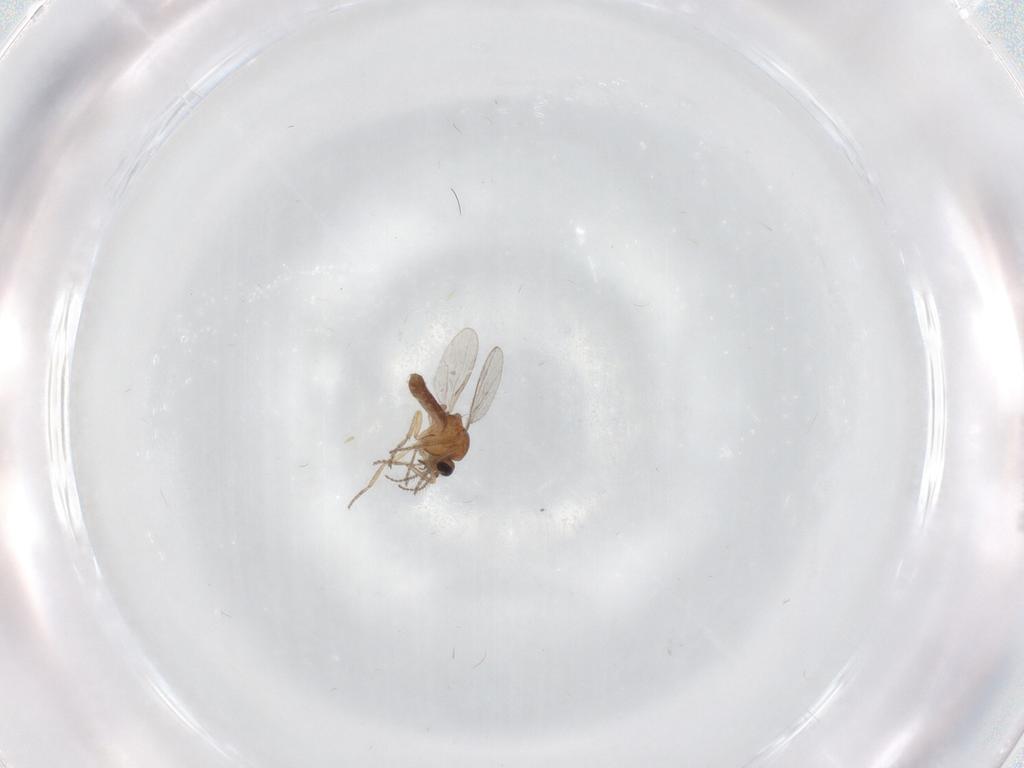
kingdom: Animalia
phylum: Arthropoda
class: Insecta
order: Diptera
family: Ceratopogonidae
